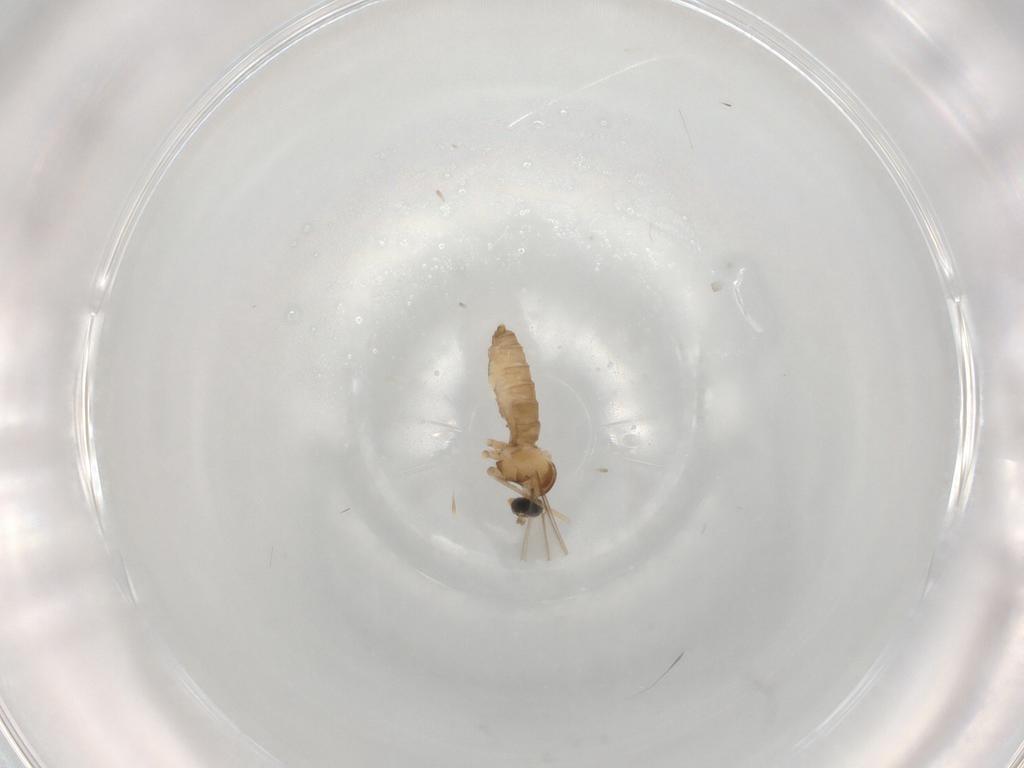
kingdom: Animalia
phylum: Arthropoda
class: Insecta
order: Diptera
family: Cecidomyiidae
